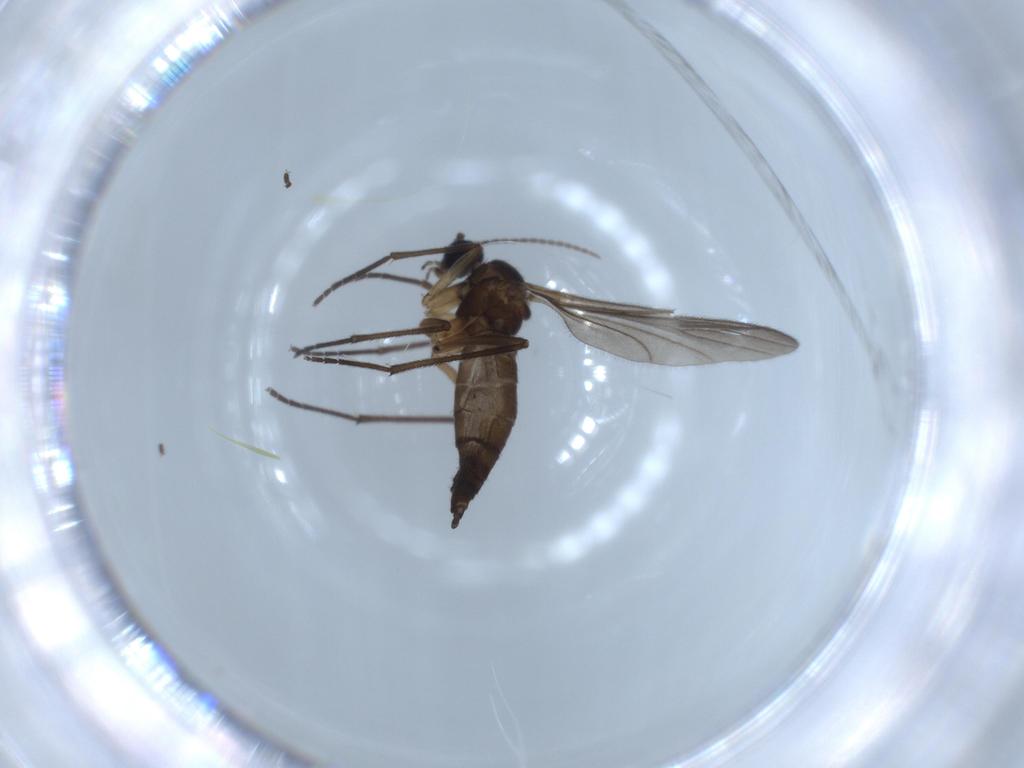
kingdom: Animalia
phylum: Arthropoda
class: Insecta
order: Diptera
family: Sciaridae
